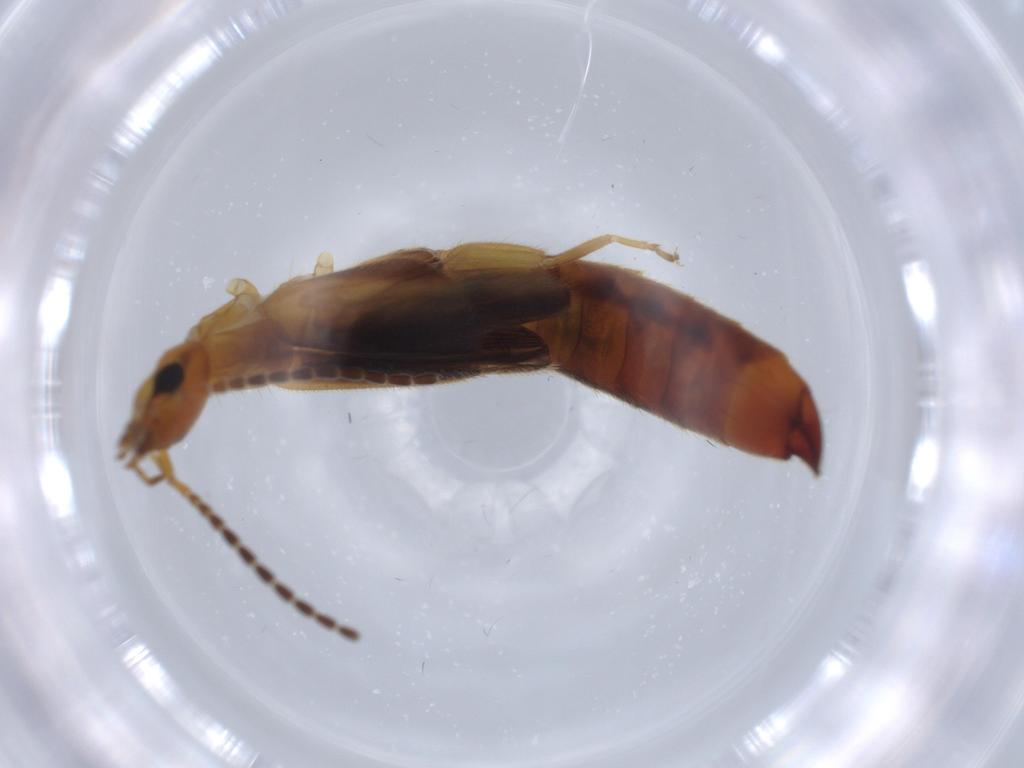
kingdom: Animalia
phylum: Arthropoda
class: Insecta
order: Dermaptera
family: Forficulidae
